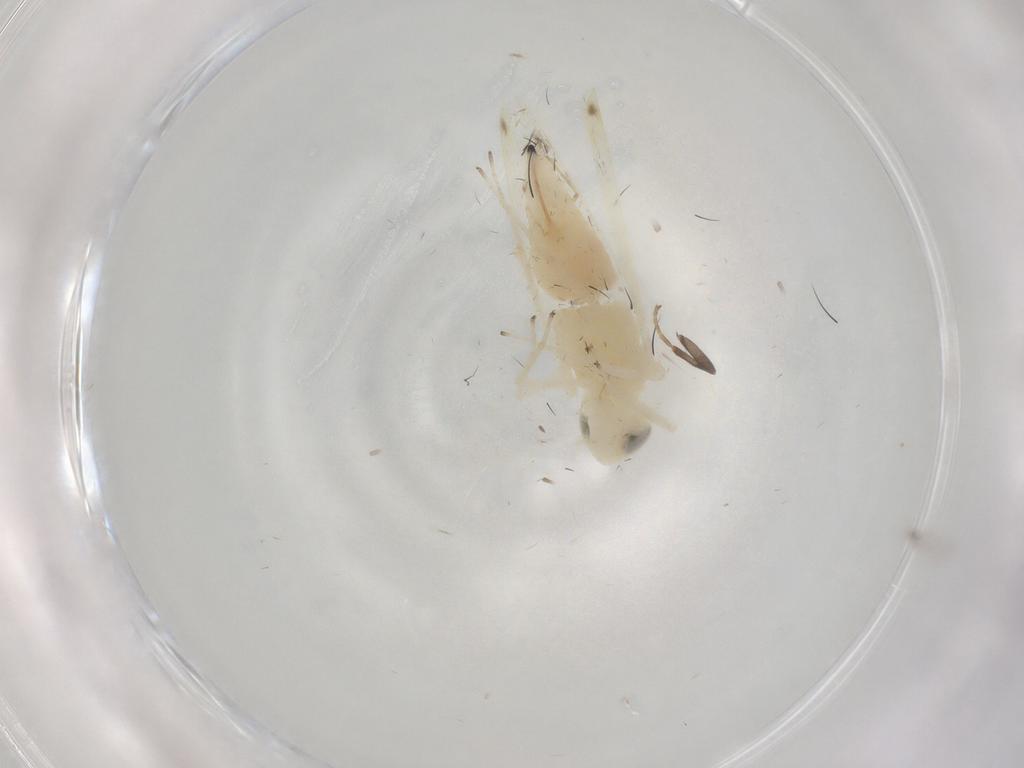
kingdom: Animalia
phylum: Arthropoda
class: Insecta
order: Hemiptera
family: Cicadellidae
